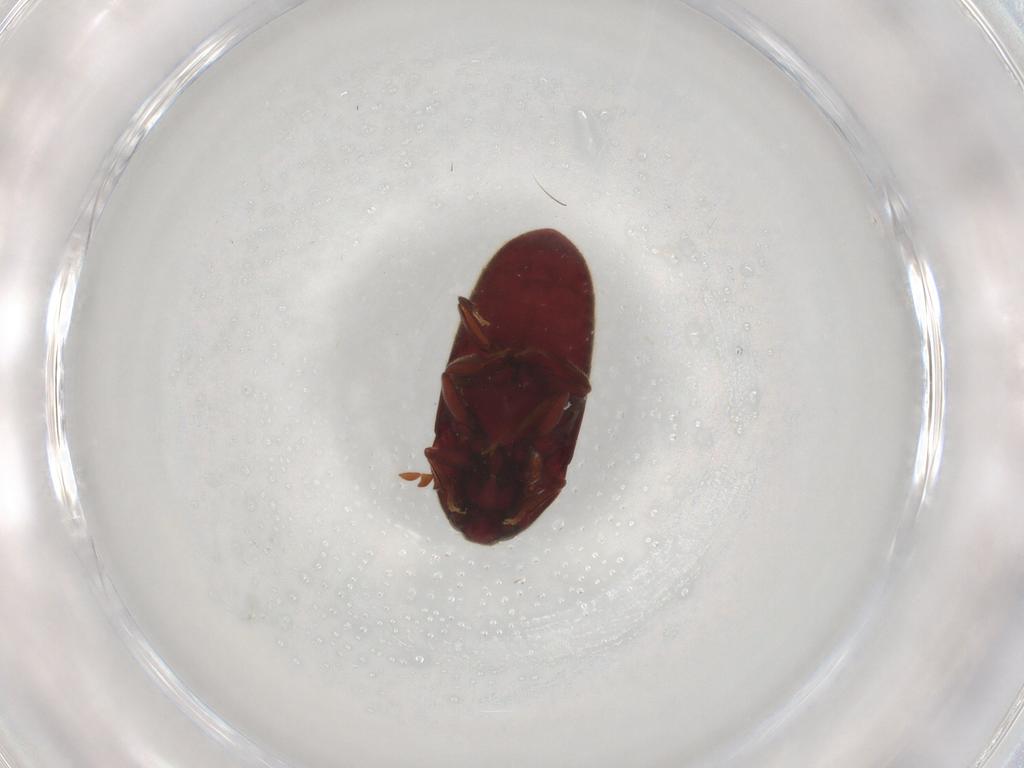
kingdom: Animalia
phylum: Arthropoda
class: Insecta
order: Coleoptera
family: Throscidae
